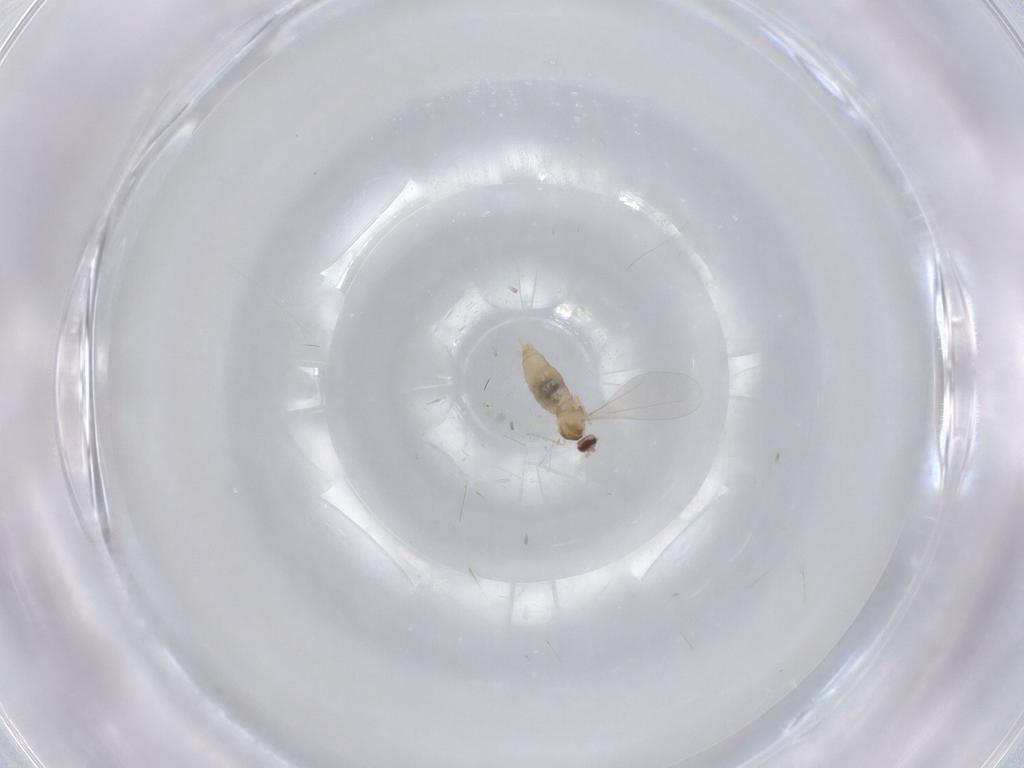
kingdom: Animalia
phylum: Arthropoda
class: Insecta
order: Diptera
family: Cecidomyiidae
